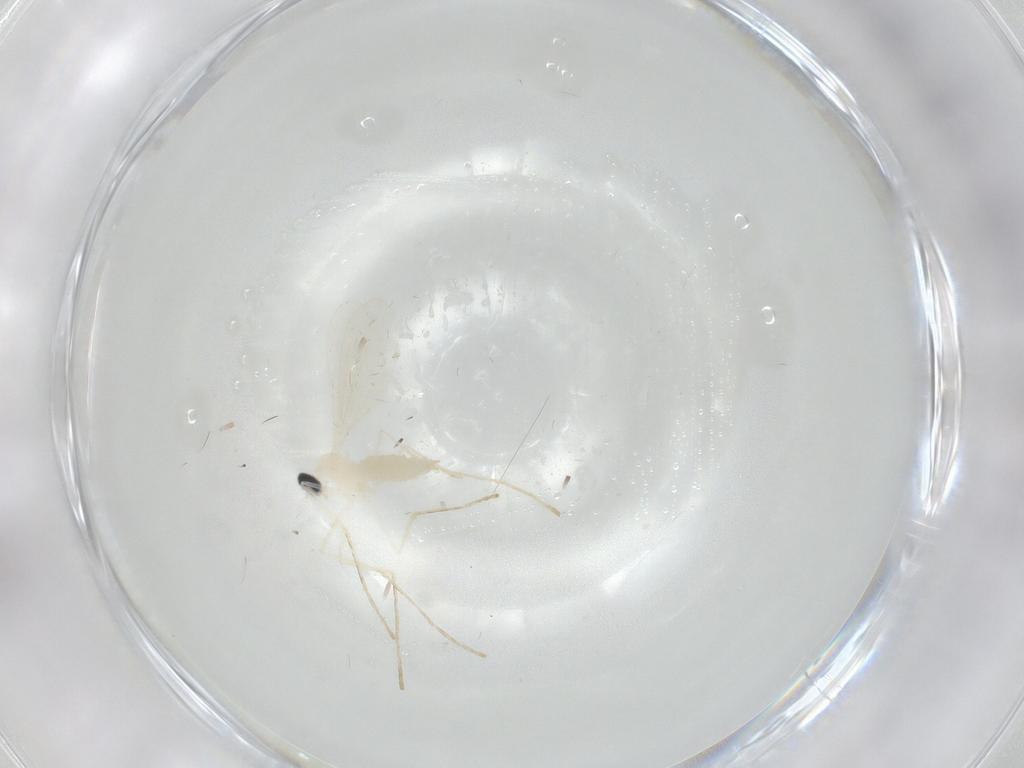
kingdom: Animalia
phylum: Arthropoda
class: Insecta
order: Diptera
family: Cecidomyiidae
